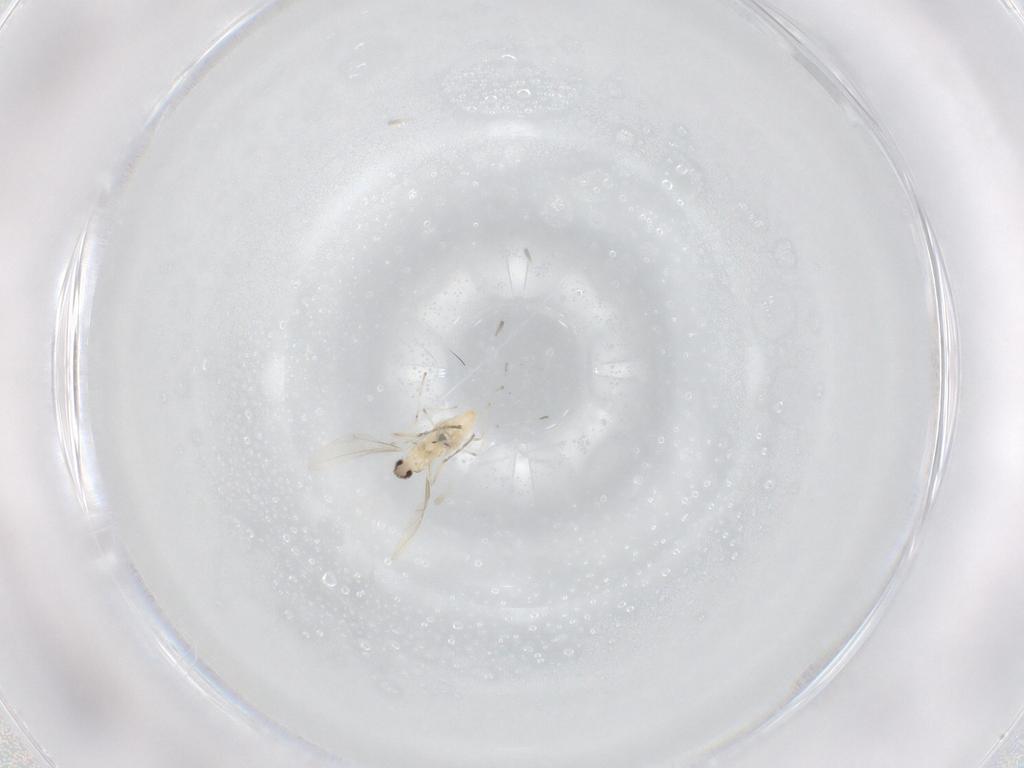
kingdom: Animalia
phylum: Arthropoda
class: Insecta
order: Diptera
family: Cecidomyiidae
